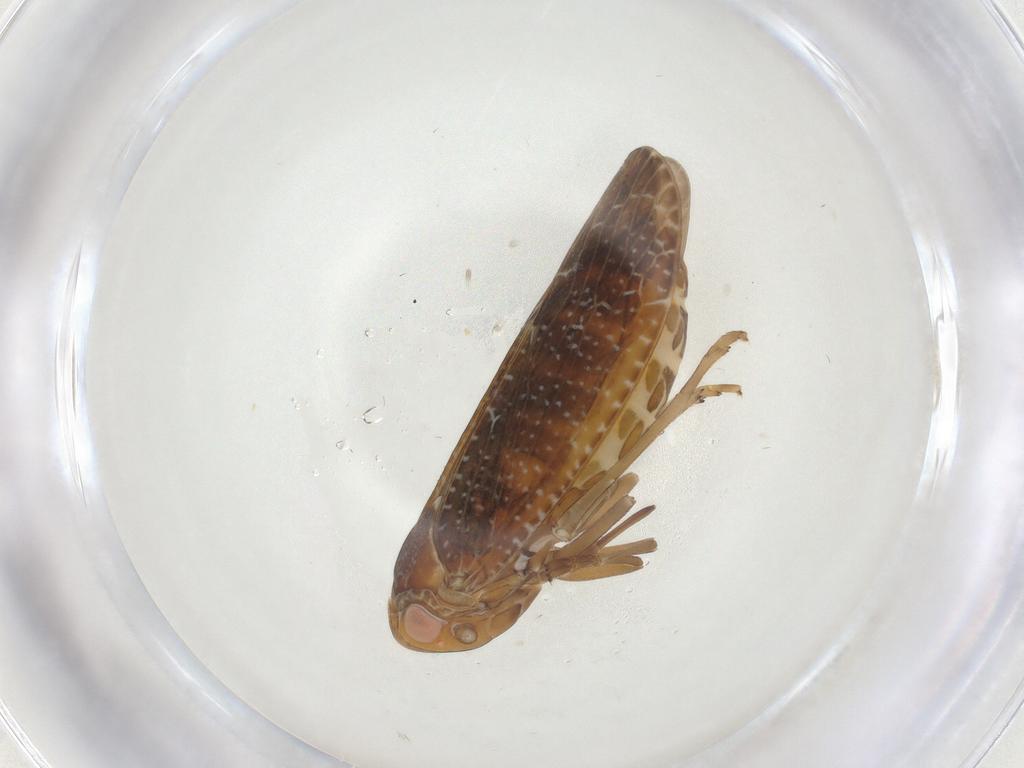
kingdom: Animalia
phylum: Arthropoda
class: Insecta
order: Hemiptera
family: Achilidae
